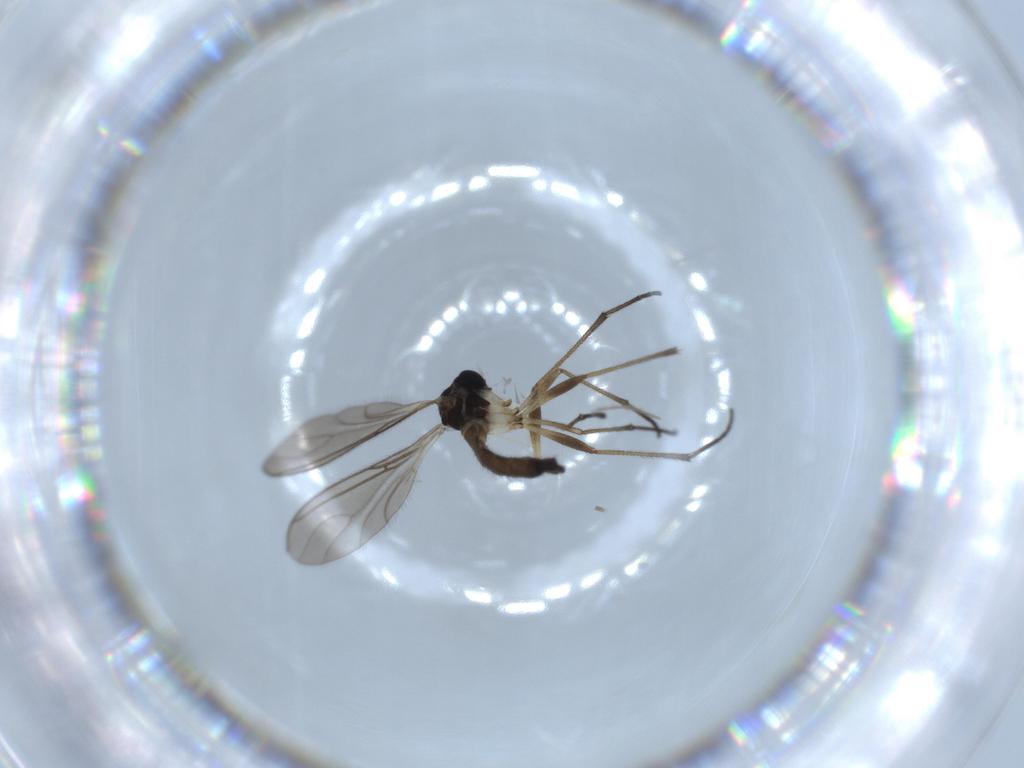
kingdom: Animalia
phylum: Arthropoda
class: Insecta
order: Diptera
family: Sciaridae
